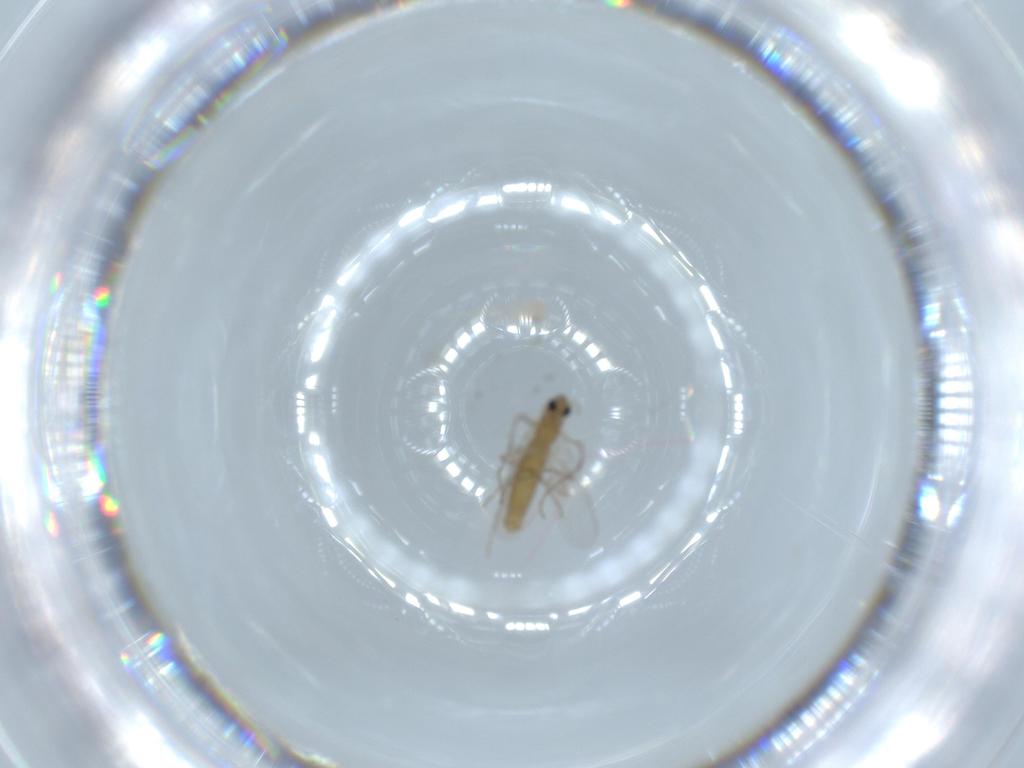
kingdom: Animalia
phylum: Arthropoda
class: Insecta
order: Diptera
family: Chironomidae
